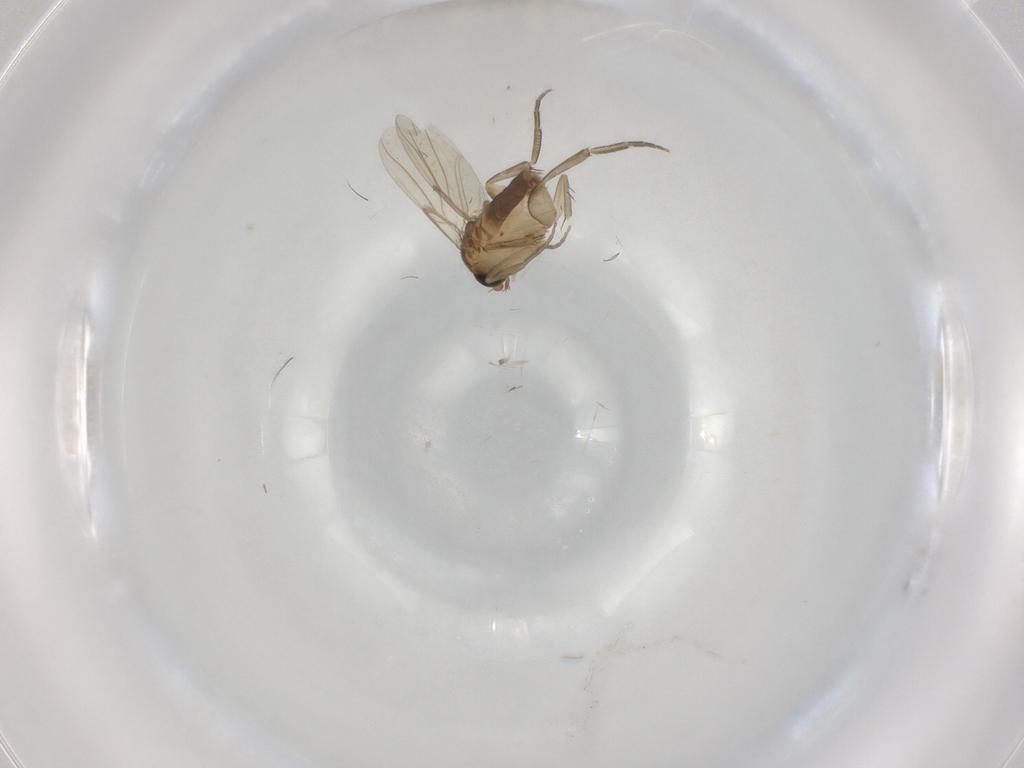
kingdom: Animalia
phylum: Arthropoda
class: Insecta
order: Diptera
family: Phoridae
